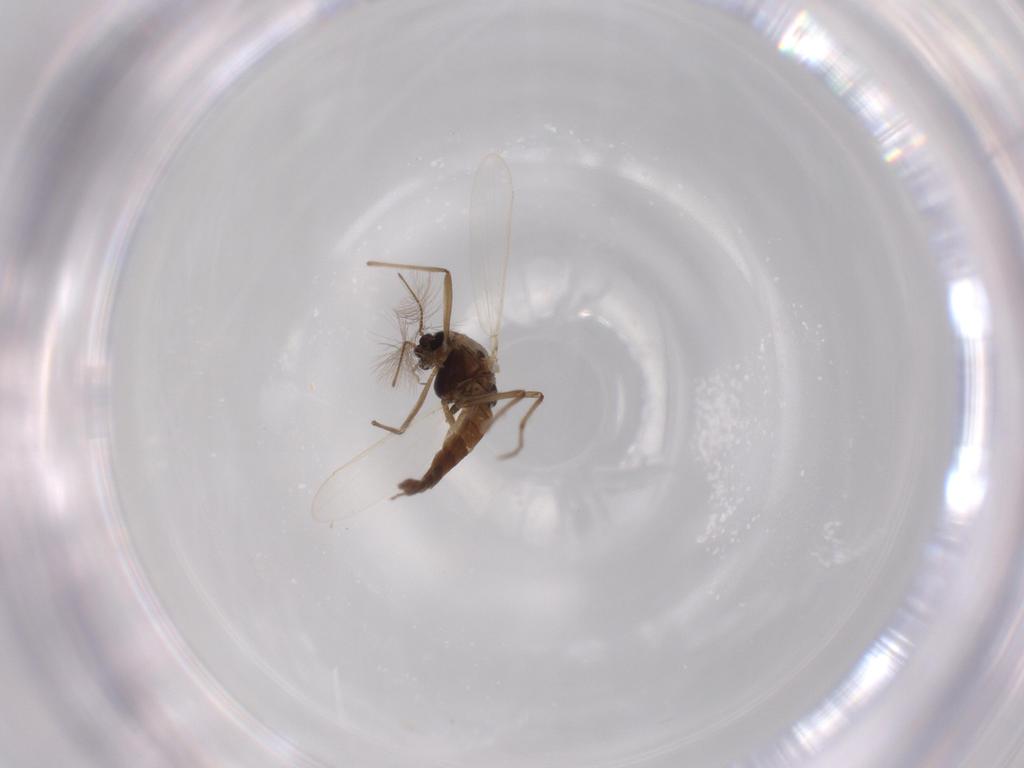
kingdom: Animalia
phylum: Arthropoda
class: Insecta
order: Diptera
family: Chironomidae
